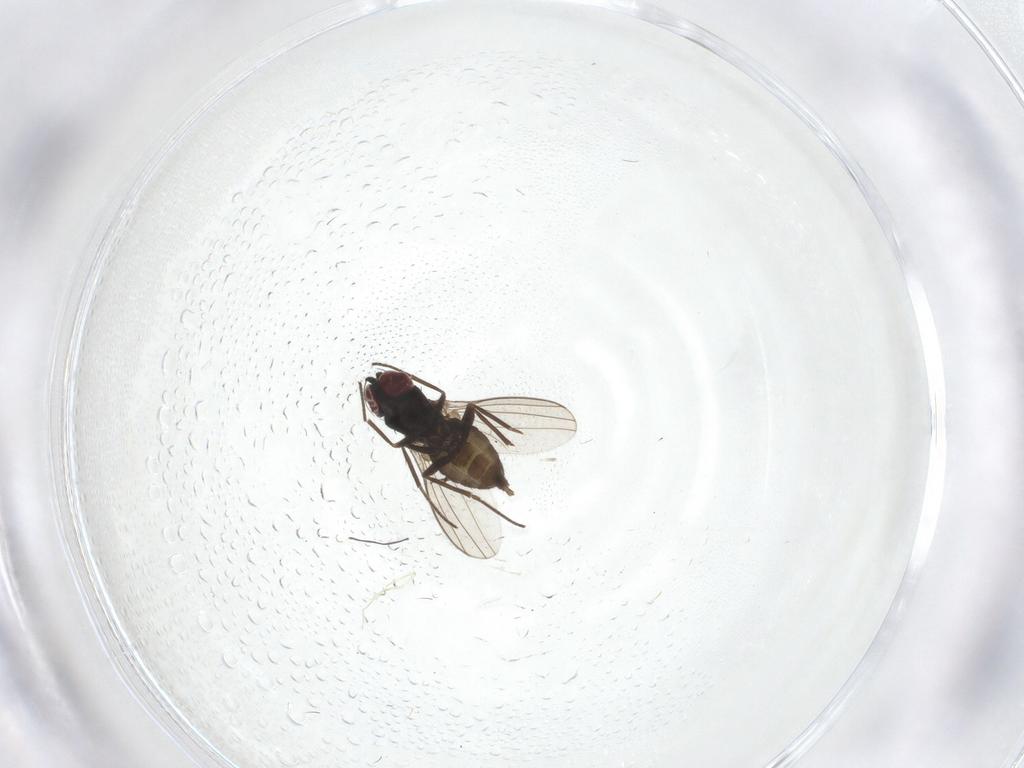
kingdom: Animalia
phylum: Arthropoda
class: Insecta
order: Diptera
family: Dolichopodidae
